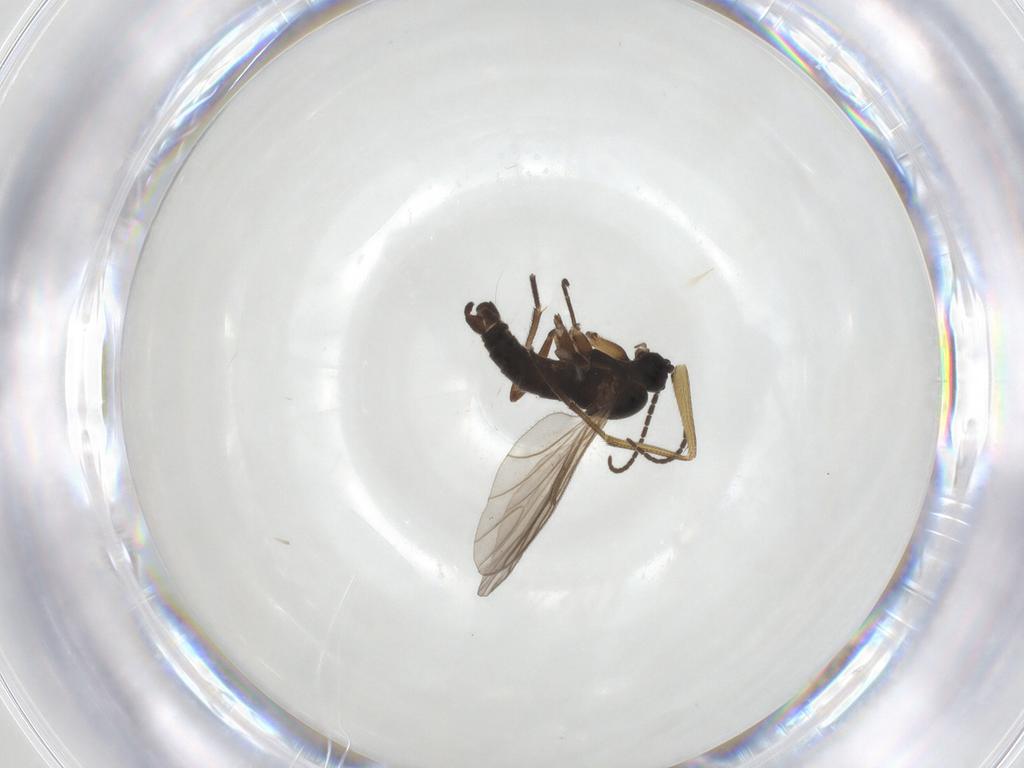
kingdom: Animalia
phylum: Arthropoda
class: Insecta
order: Diptera
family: Sciaridae
